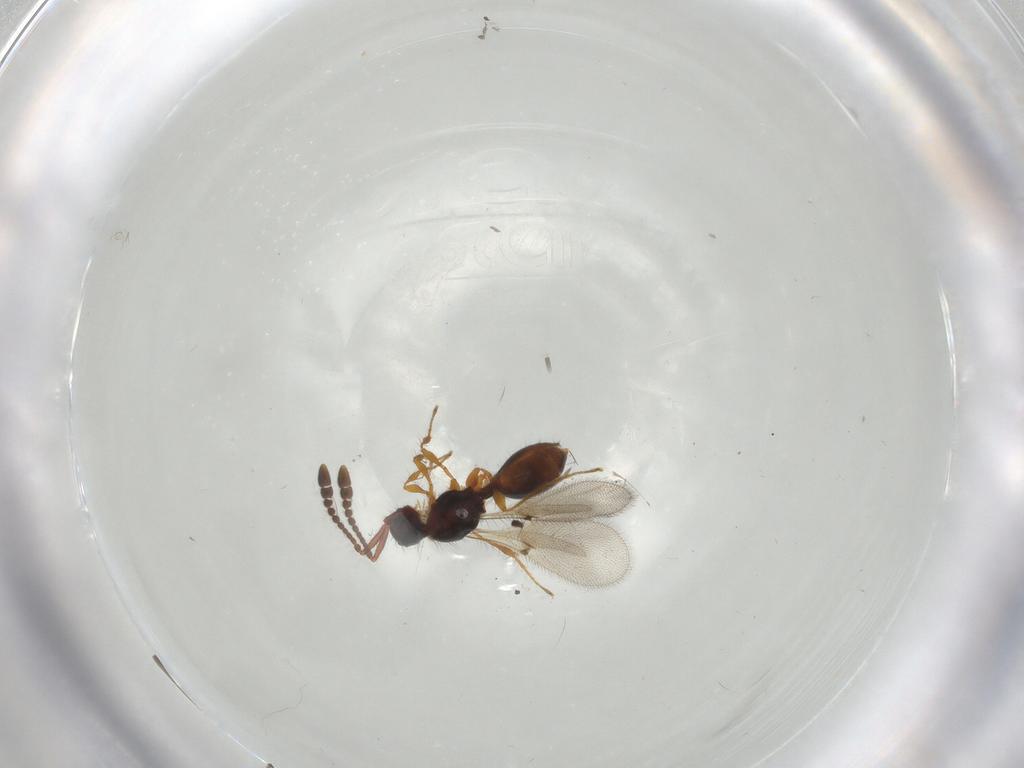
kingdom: Animalia
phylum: Arthropoda
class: Insecta
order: Hymenoptera
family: Diapriidae
